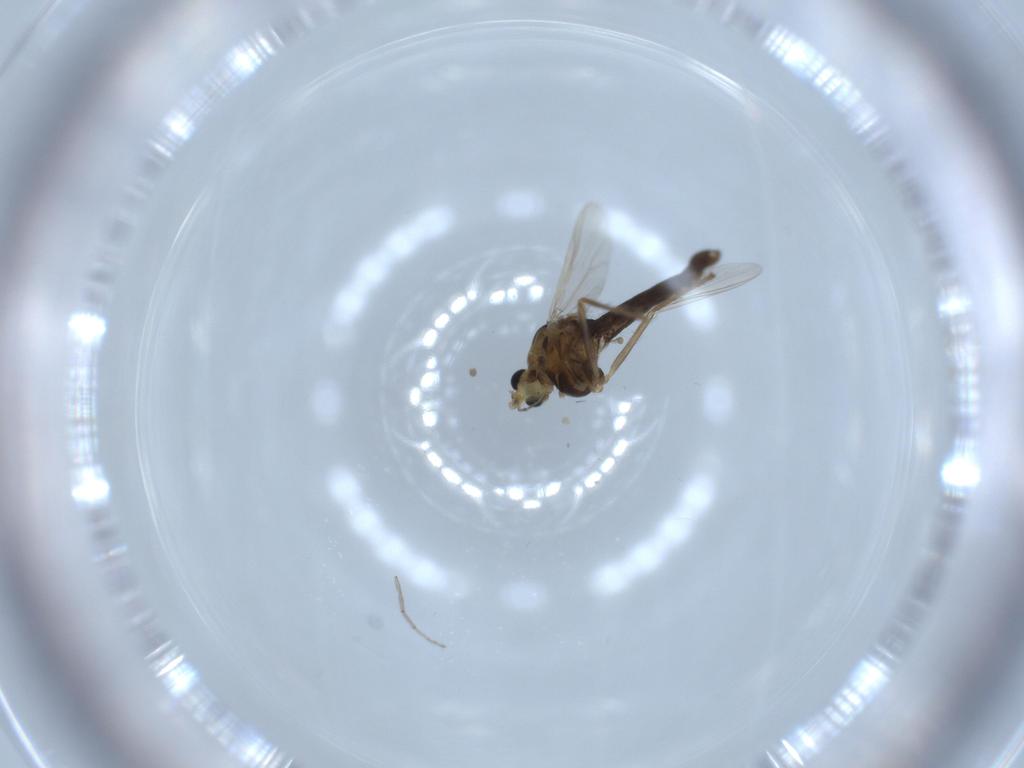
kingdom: Animalia
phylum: Arthropoda
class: Insecta
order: Diptera
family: Chironomidae
